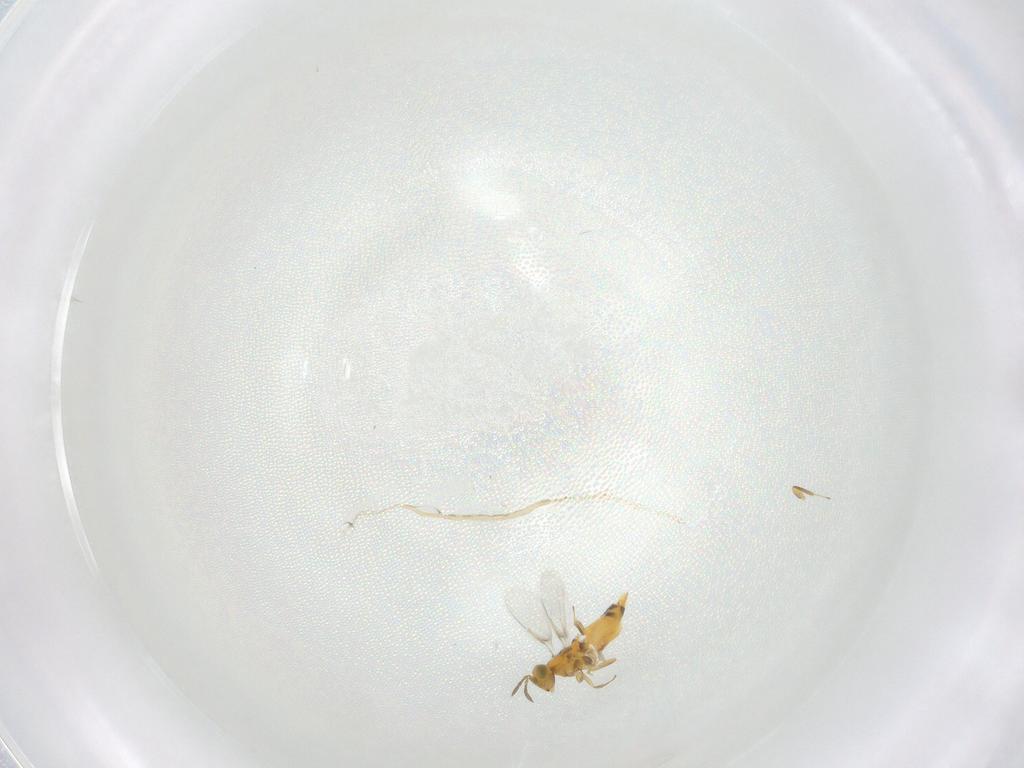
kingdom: Animalia
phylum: Arthropoda
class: Insecta
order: Hymenoptera
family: Aphelinidae
